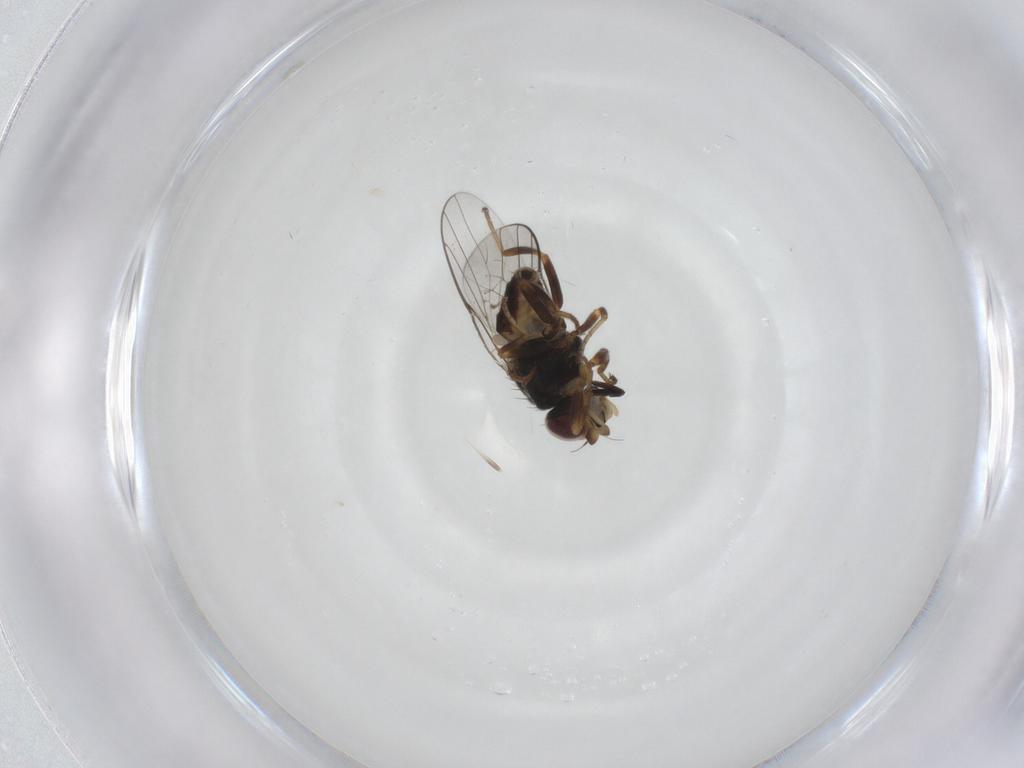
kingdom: Animalia
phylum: Arthropoda
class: Insecta
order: Diptera
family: Chloropidae
